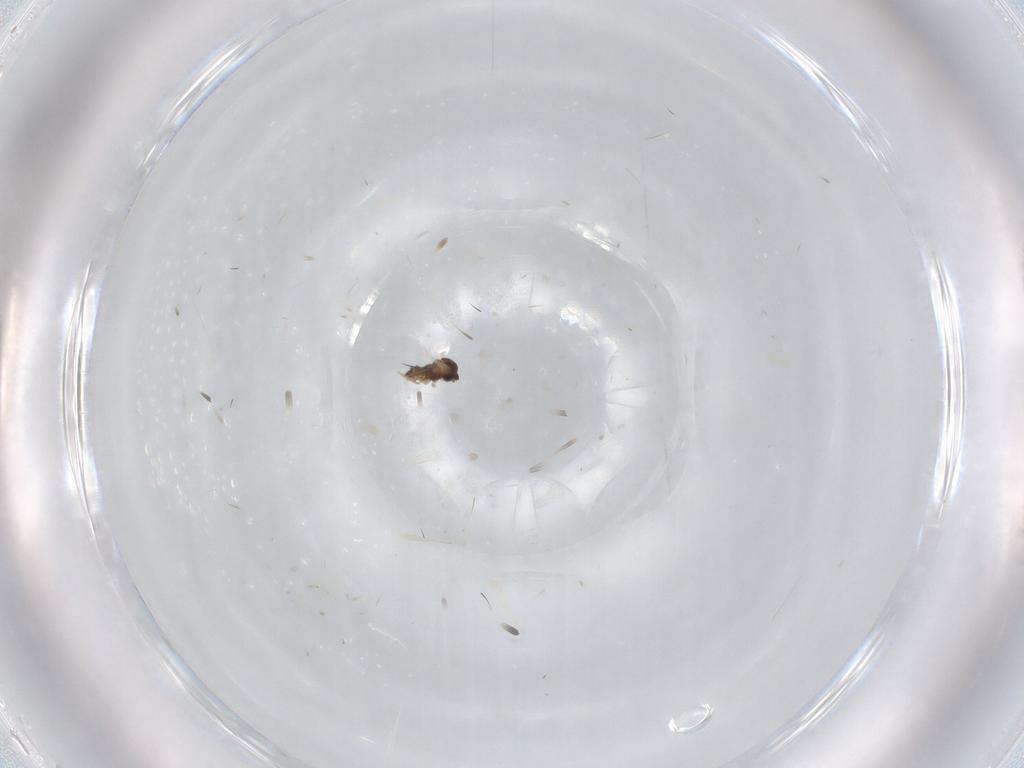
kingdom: Animalia
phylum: Arthropoda
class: Insecta
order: Diptera
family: Cecidomyiidae
